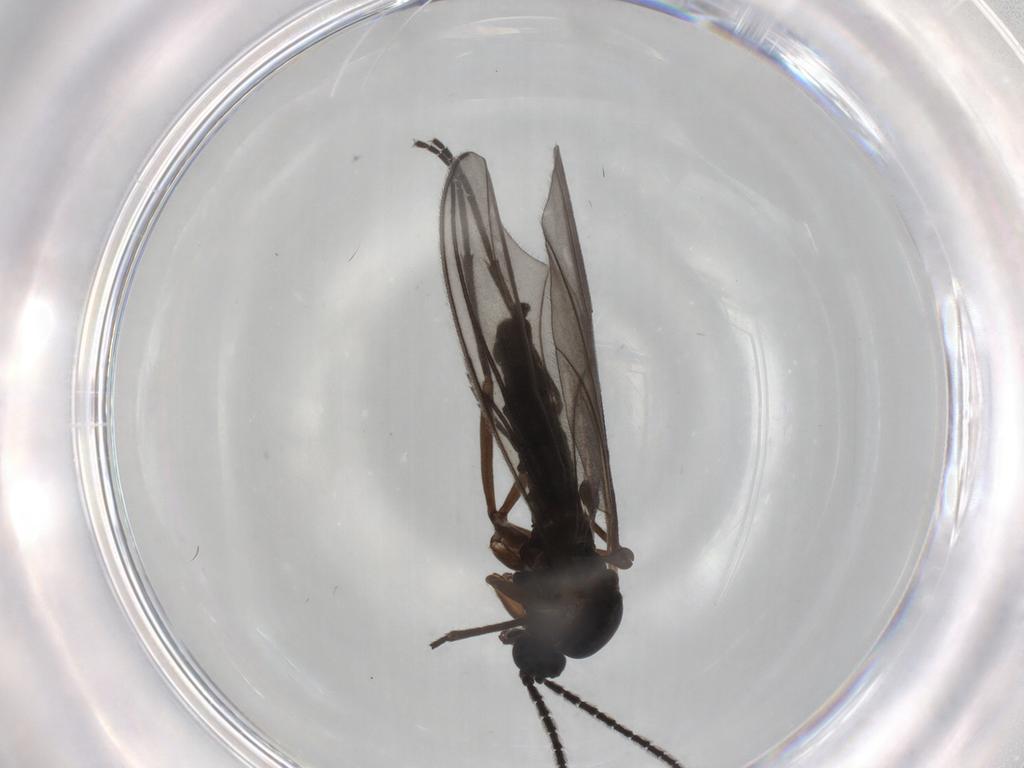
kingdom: Animalia
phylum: Arthropoda
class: Insecta
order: Diptera
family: Sciaridae
